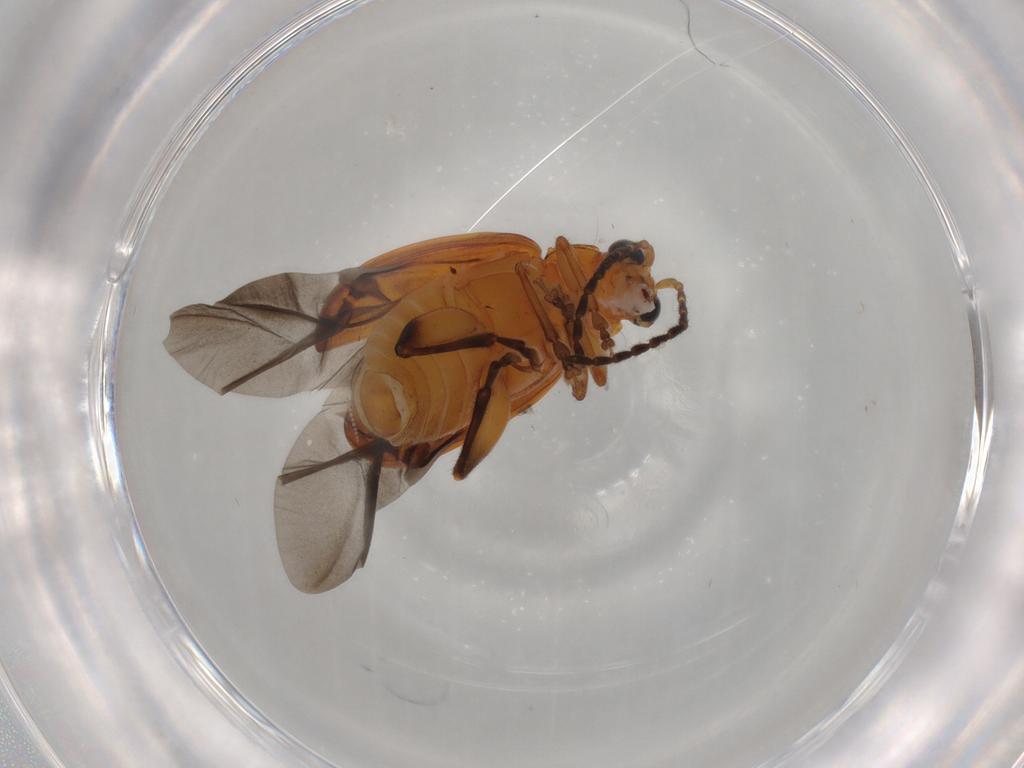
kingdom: Animalia
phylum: Arthropoda
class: Insecta
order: Coleoptera
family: Chrysomelidae
